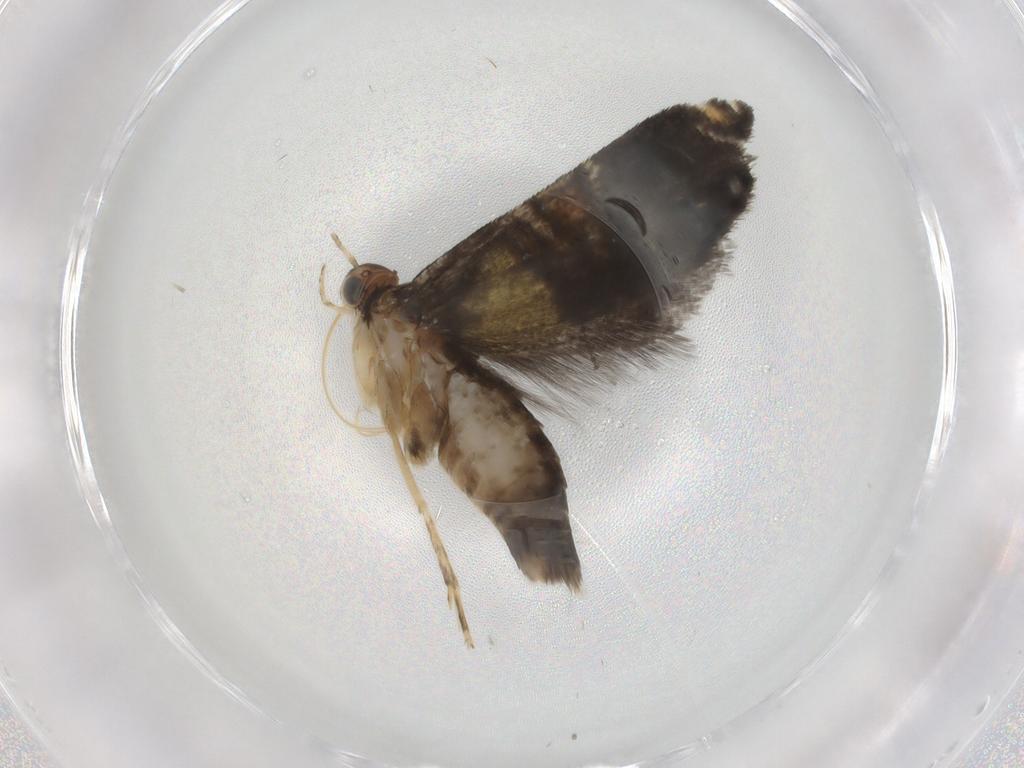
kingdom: Animalia
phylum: Arthropoda
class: Insecta
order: Lepidoptera
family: Glyphipterigidae
